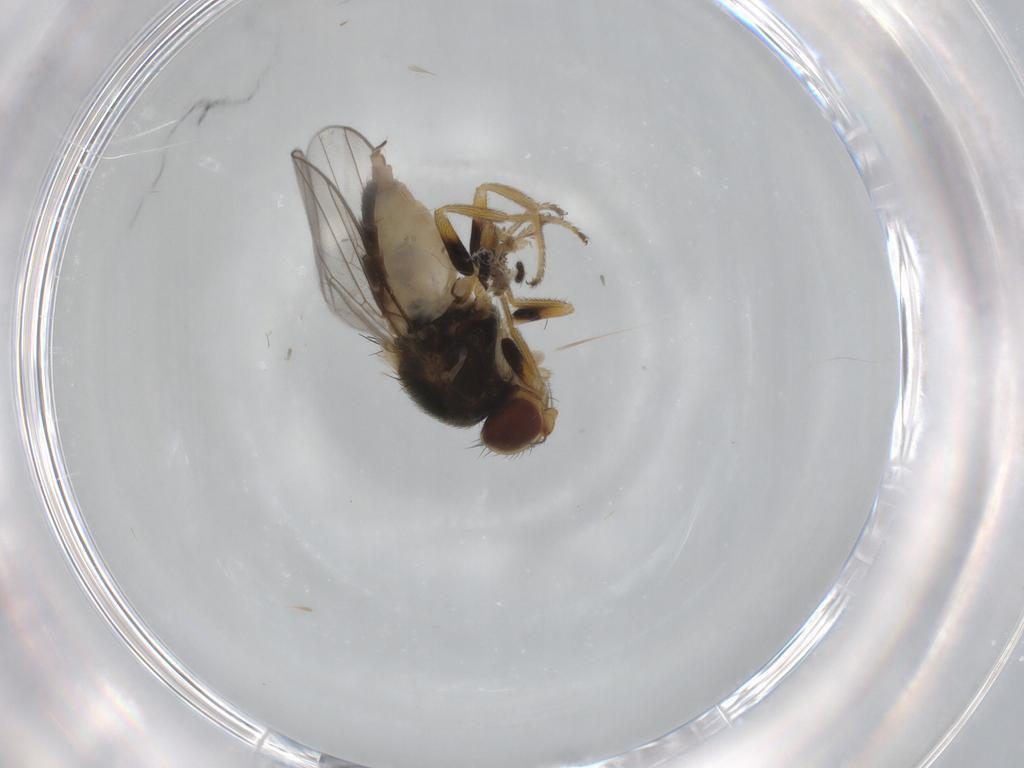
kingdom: Animalia
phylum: Arthropoda
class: Insecta
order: Diptera
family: Chloropidae
